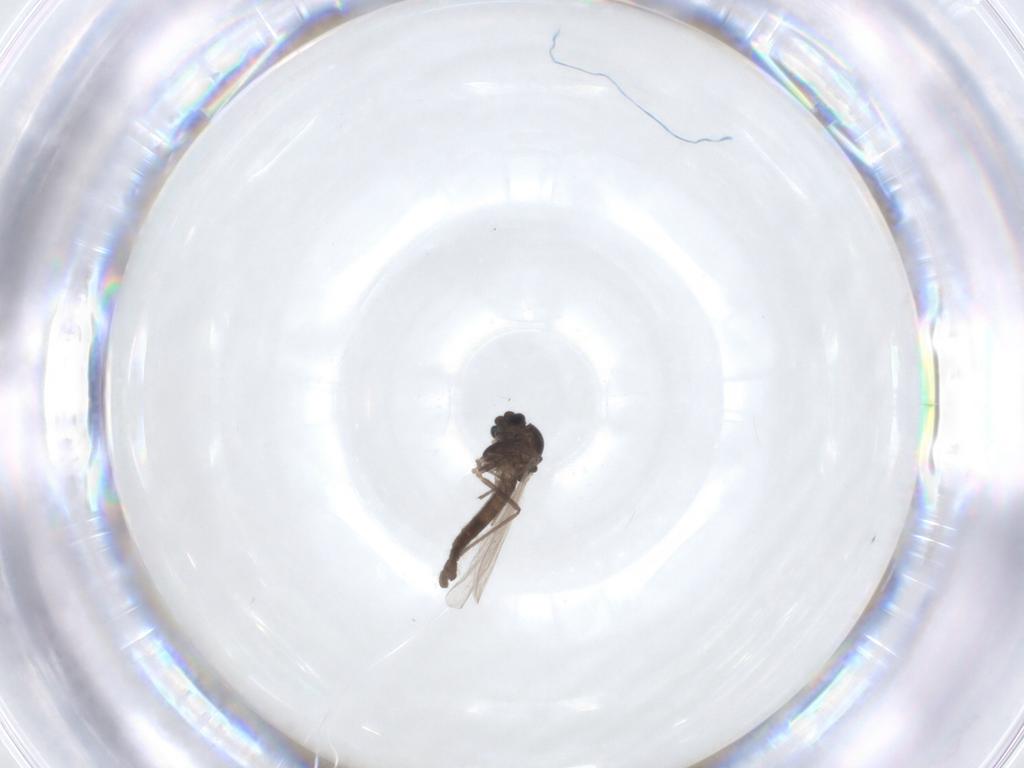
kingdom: Animalia
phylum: Arthropoda
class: Insecta
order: Diptera
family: Chironomidae
